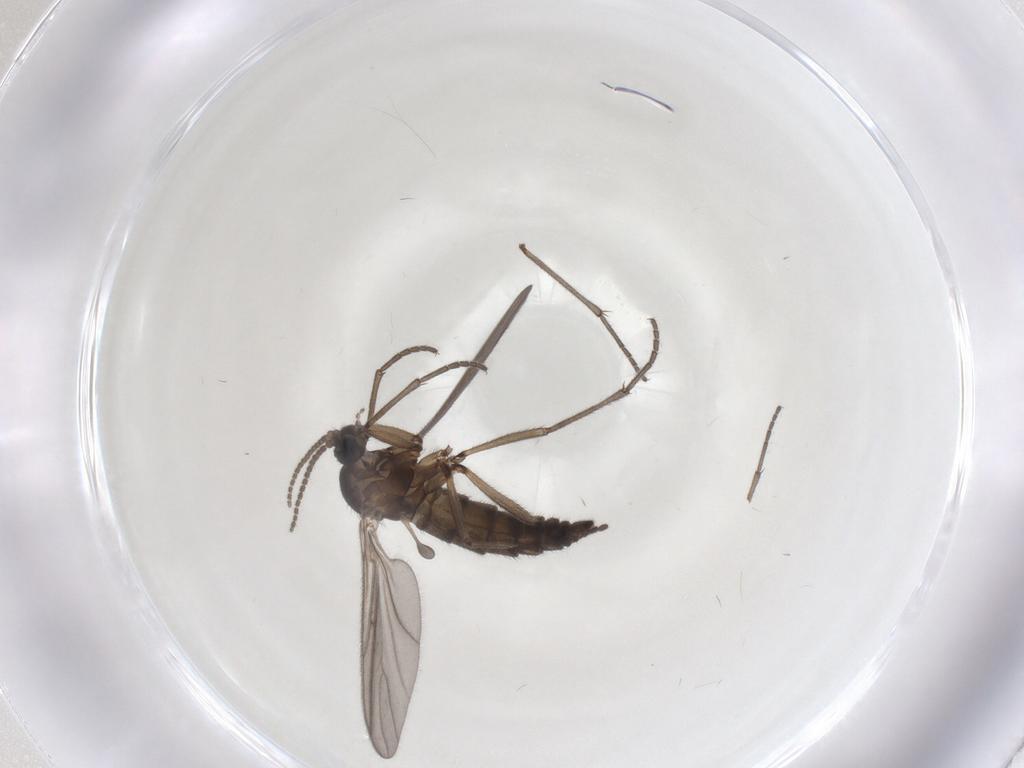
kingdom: Animalia
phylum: Arthropoda
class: Insecta
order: Diptera
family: Sciaridae
